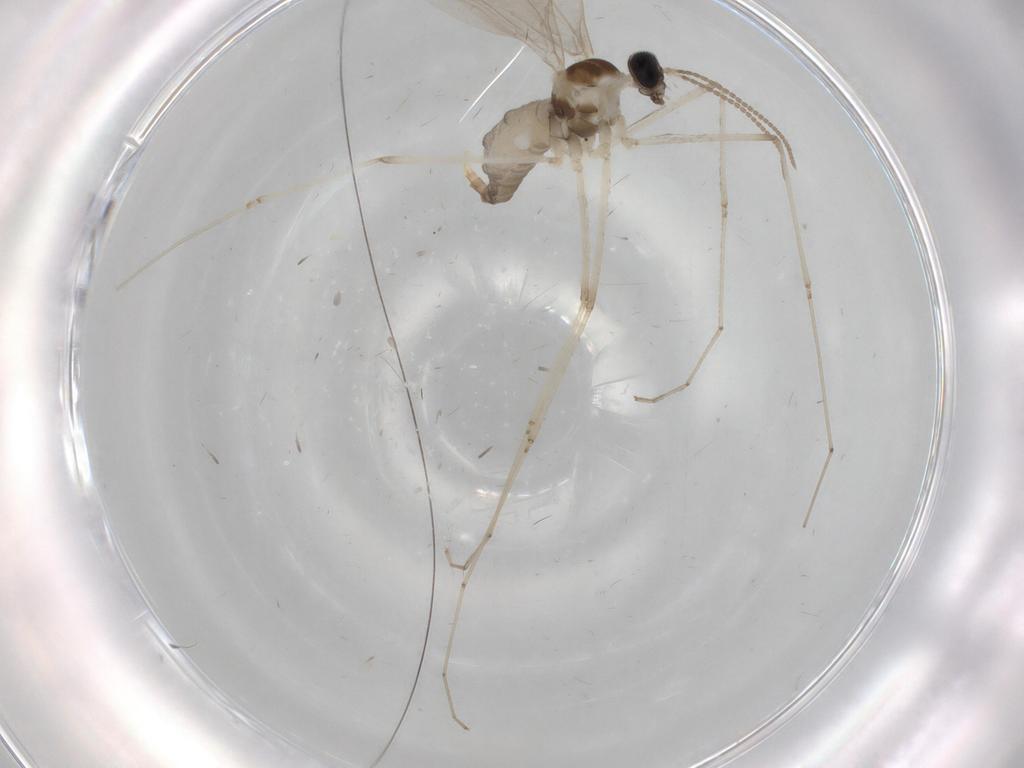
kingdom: Animalia
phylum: Arthropoda
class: Insecta
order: Diptera
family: Cecidomyiidae
